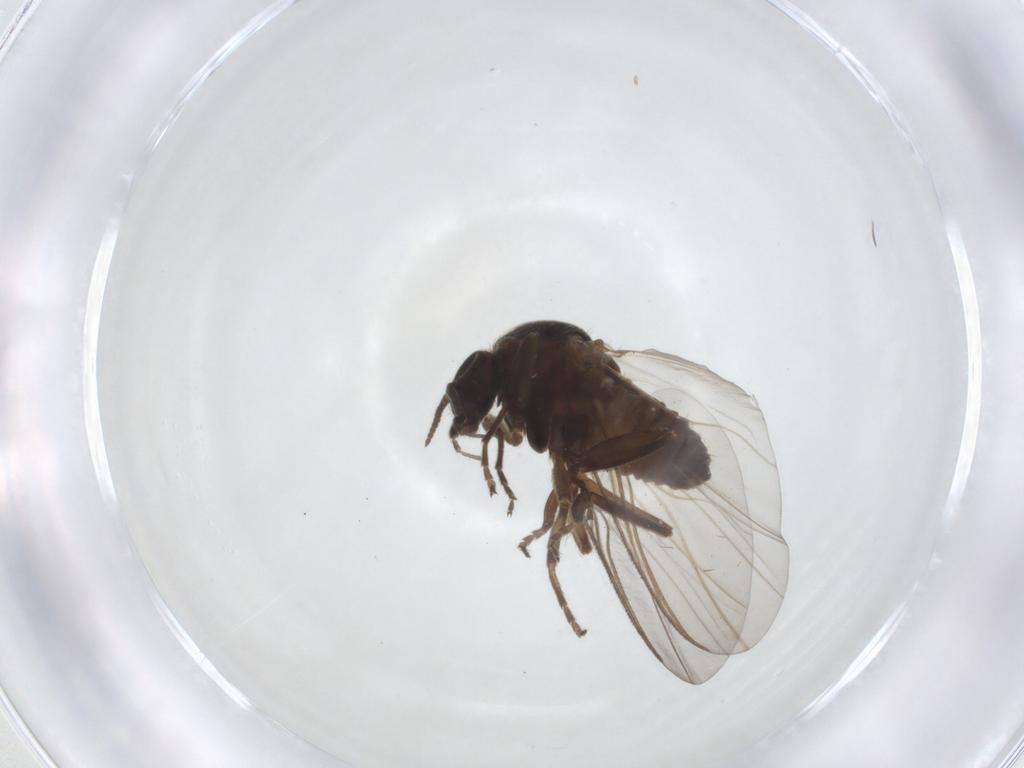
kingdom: Animalia
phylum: Arthropoda
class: Insecta
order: Diptera
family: Simuliidae
